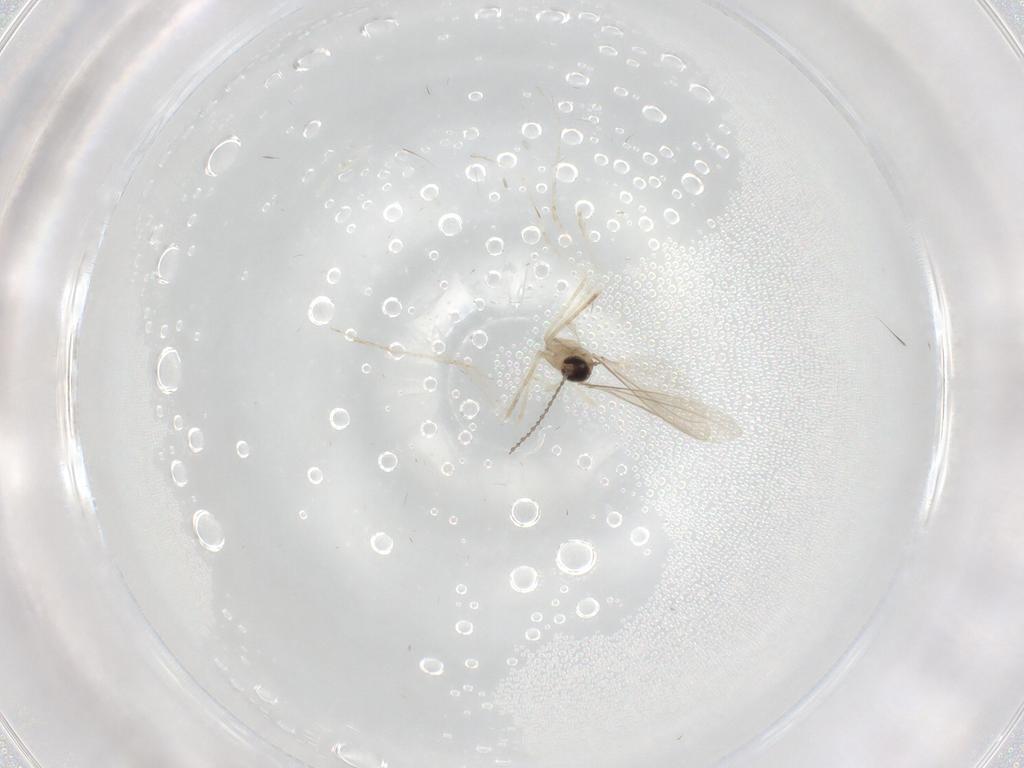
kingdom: Animalia
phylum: Arthropoda
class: Insecta
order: Diptera
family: Cecidomyiidae
